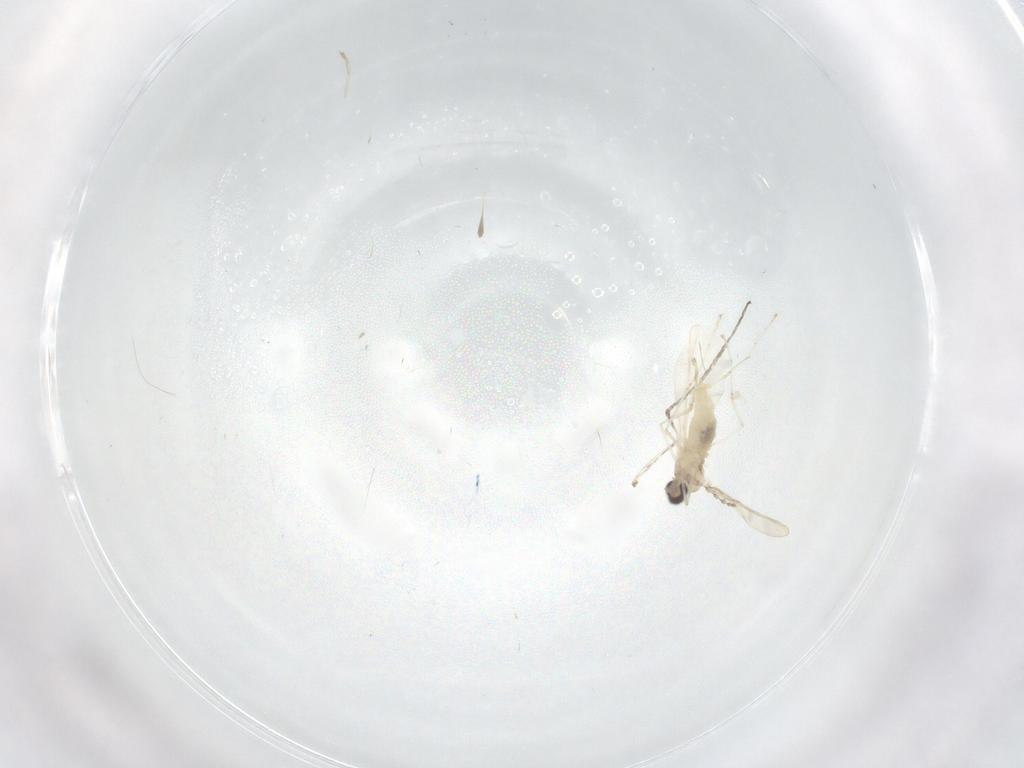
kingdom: Animalia
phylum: Arthropoda
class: Insecta
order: Diptera
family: Cecidomyiidae
